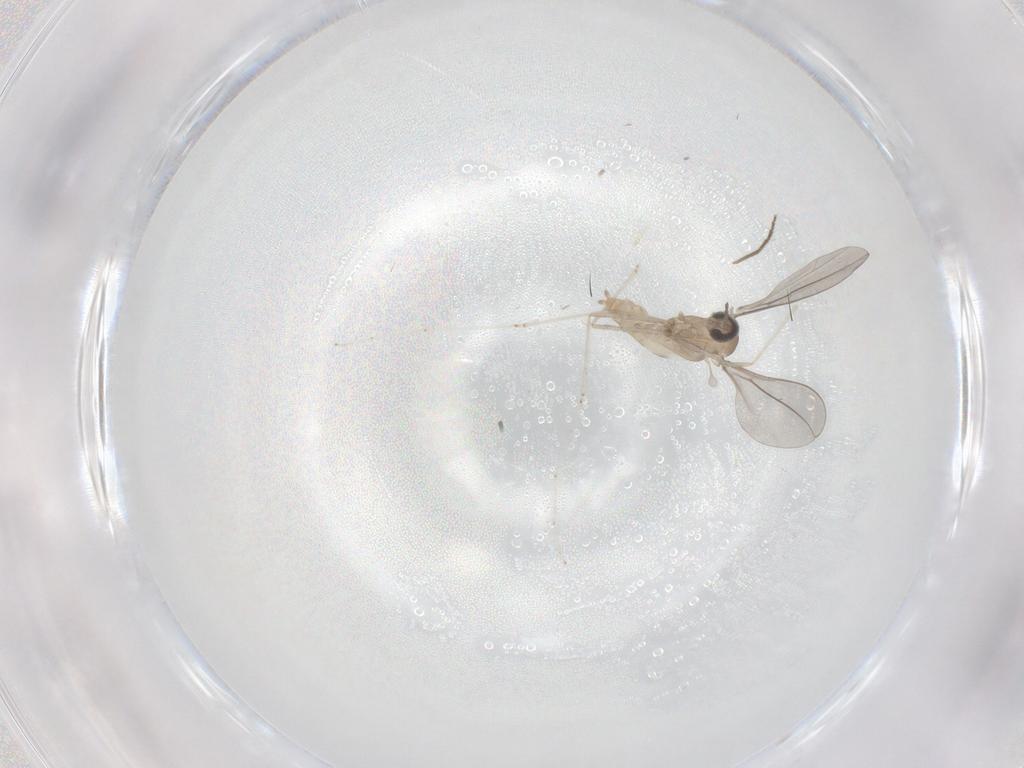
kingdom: Animalia
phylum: Arthropoda
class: Insecta
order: Diptera
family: Cecidomyiidae
